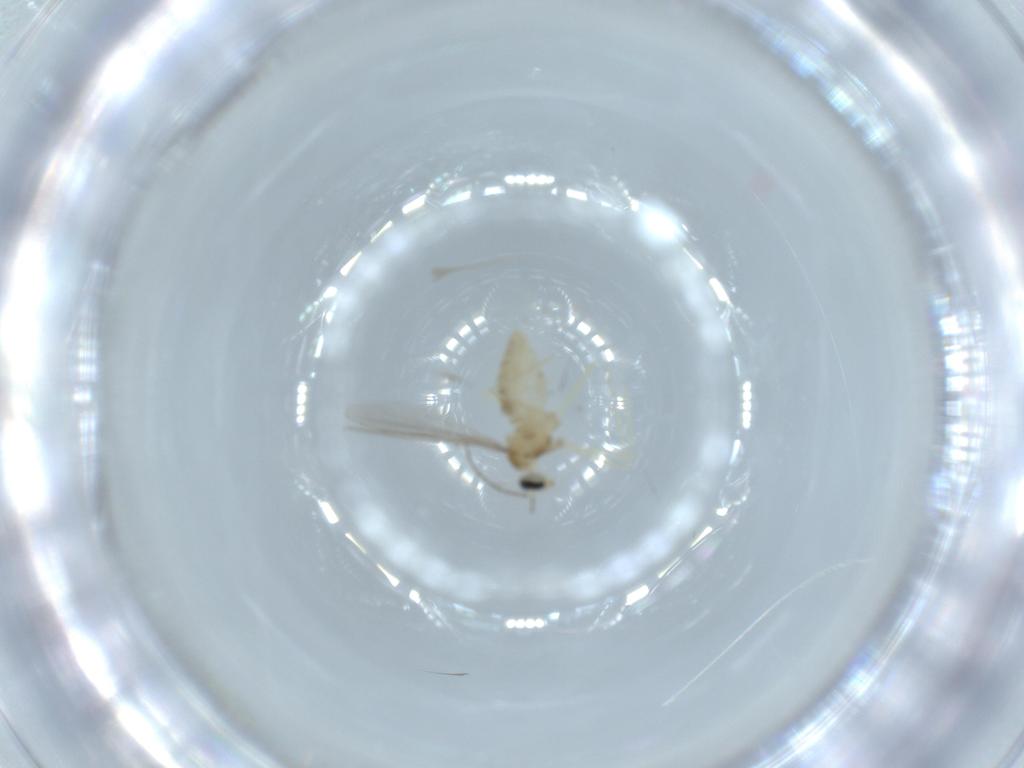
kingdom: Animalia
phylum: Arthropoda
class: Insecta
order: Diptera
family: Cecidomyiidae
